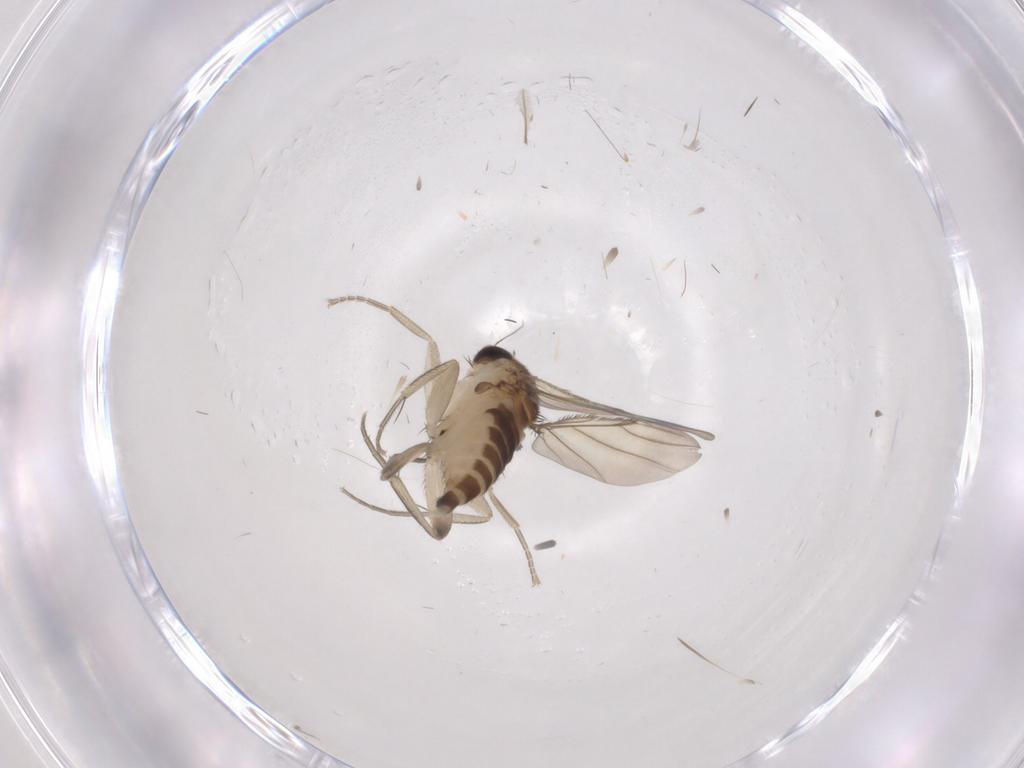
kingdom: Animalia
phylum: Arthropoda
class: Insecta
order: Diptera
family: Phoridae
